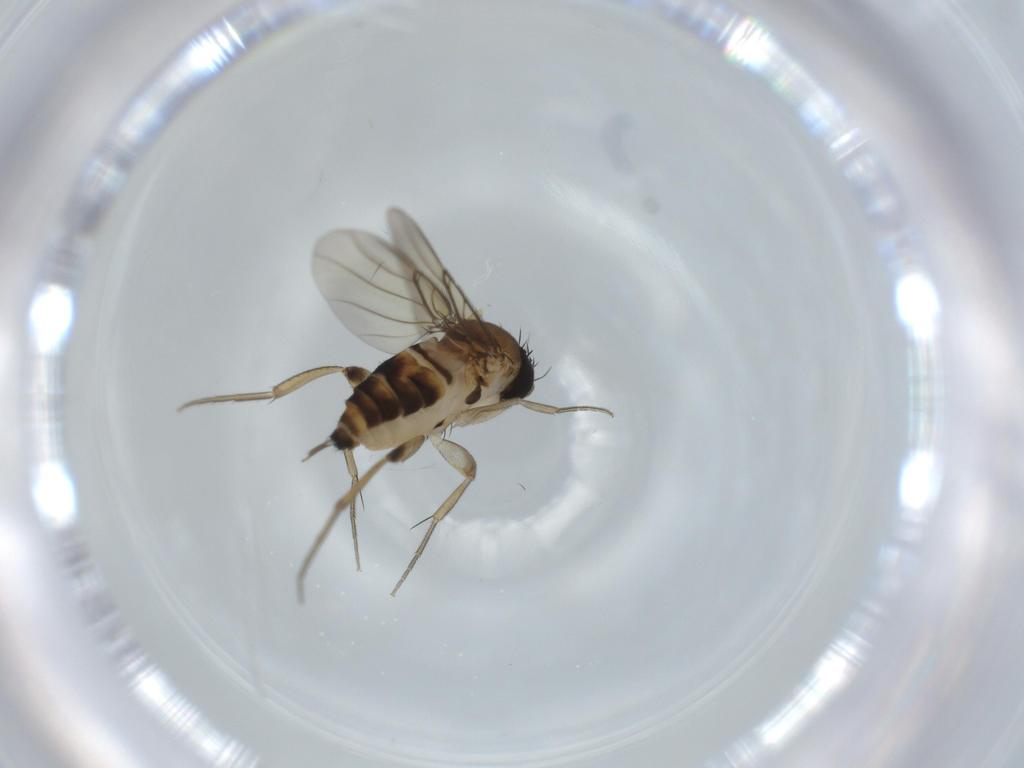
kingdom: Animalia
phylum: Arthropoda
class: Insecta
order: Diptera
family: Phoridae
